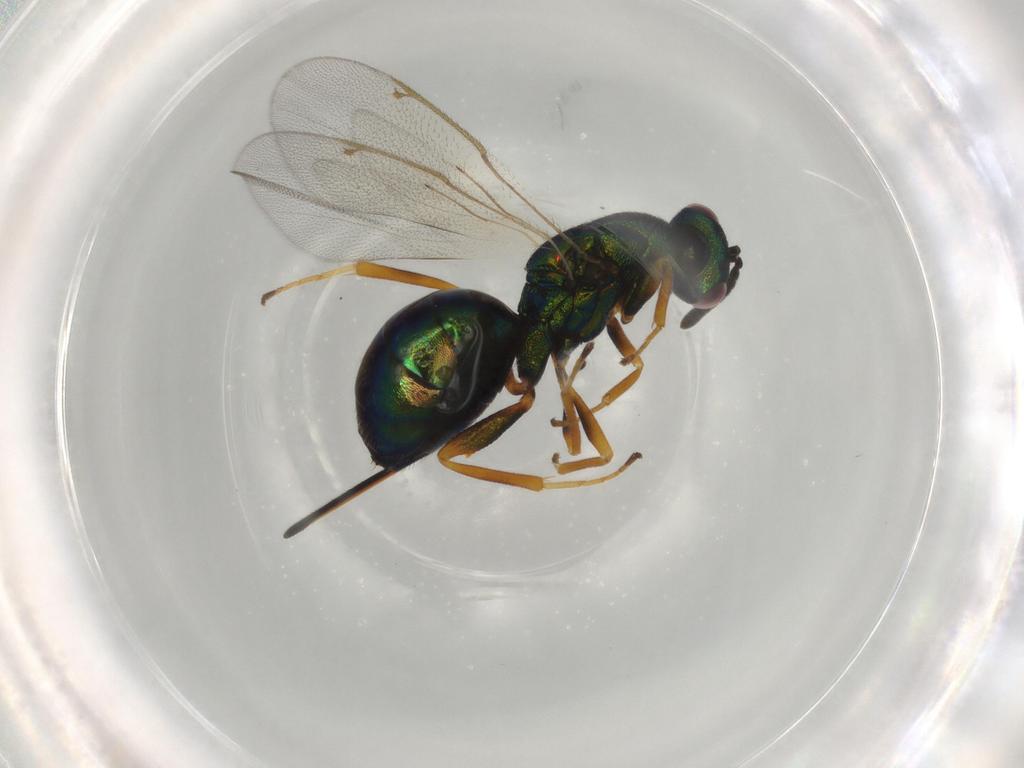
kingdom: Animalia
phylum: Arthropoda
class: Insecta
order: Hymenoptera
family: Torymidae
